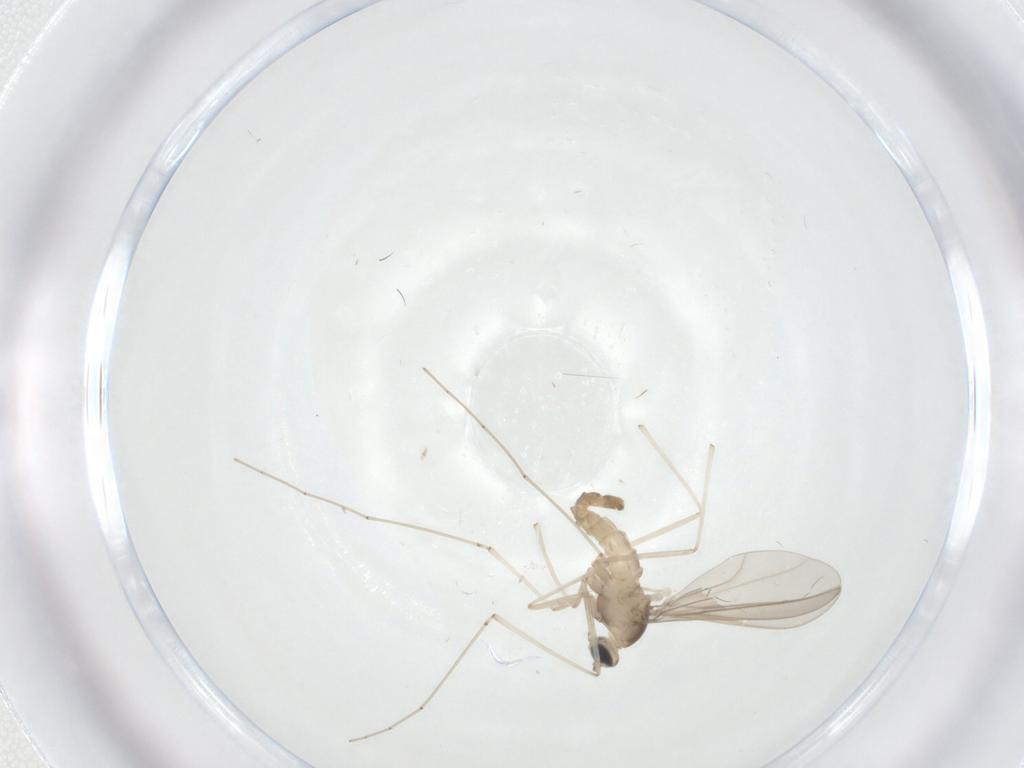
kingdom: Animalia
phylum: Arthropoda
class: Insecta
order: Diptera
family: Cecidomyiidae
